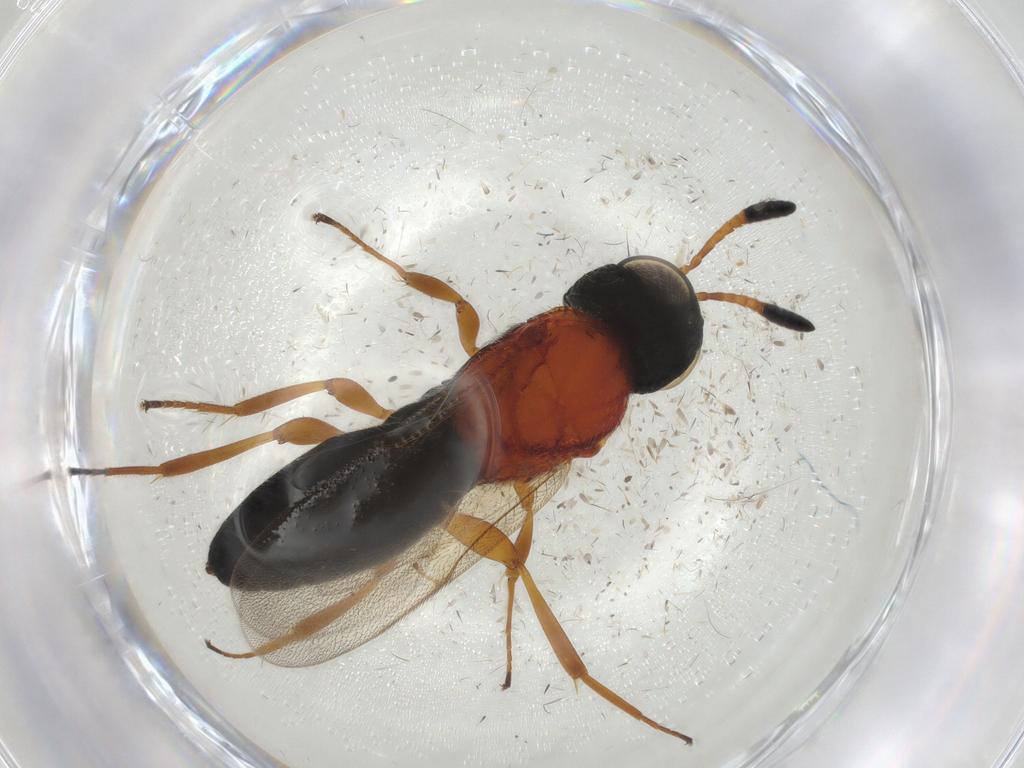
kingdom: Animalia
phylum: Arthropoda
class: Insecta
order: Hymenoptera
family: Scelionidae
